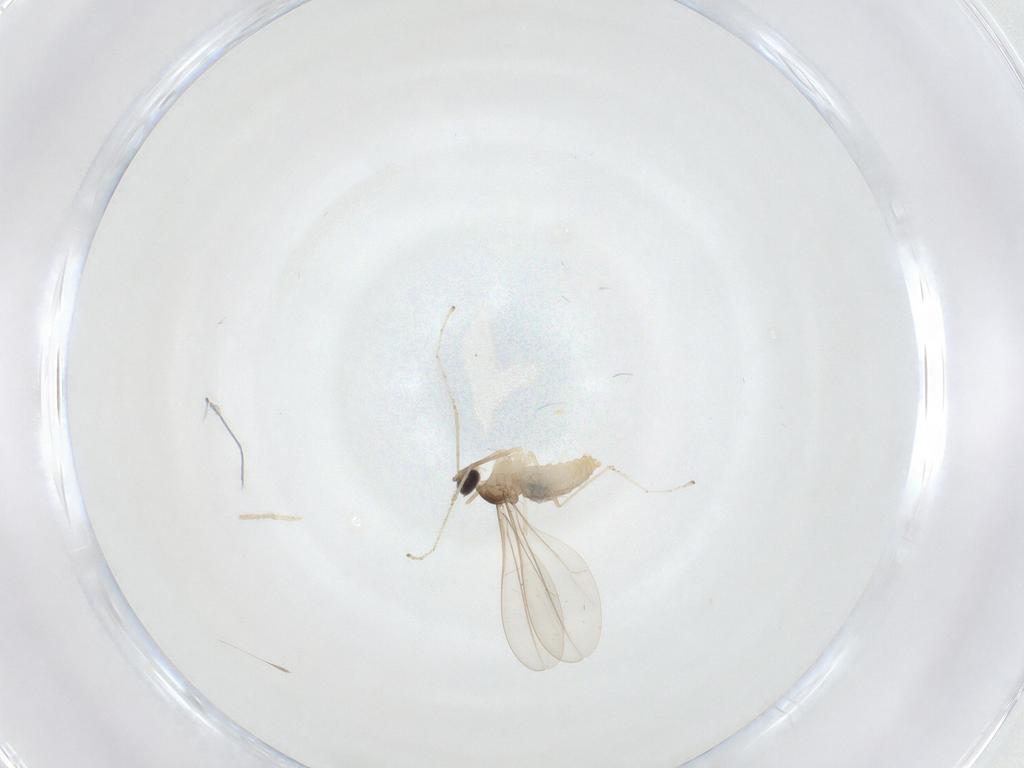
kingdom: Animalia
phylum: Arthropoda
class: Insecta
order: Diptera
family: Cecidomyiidae
